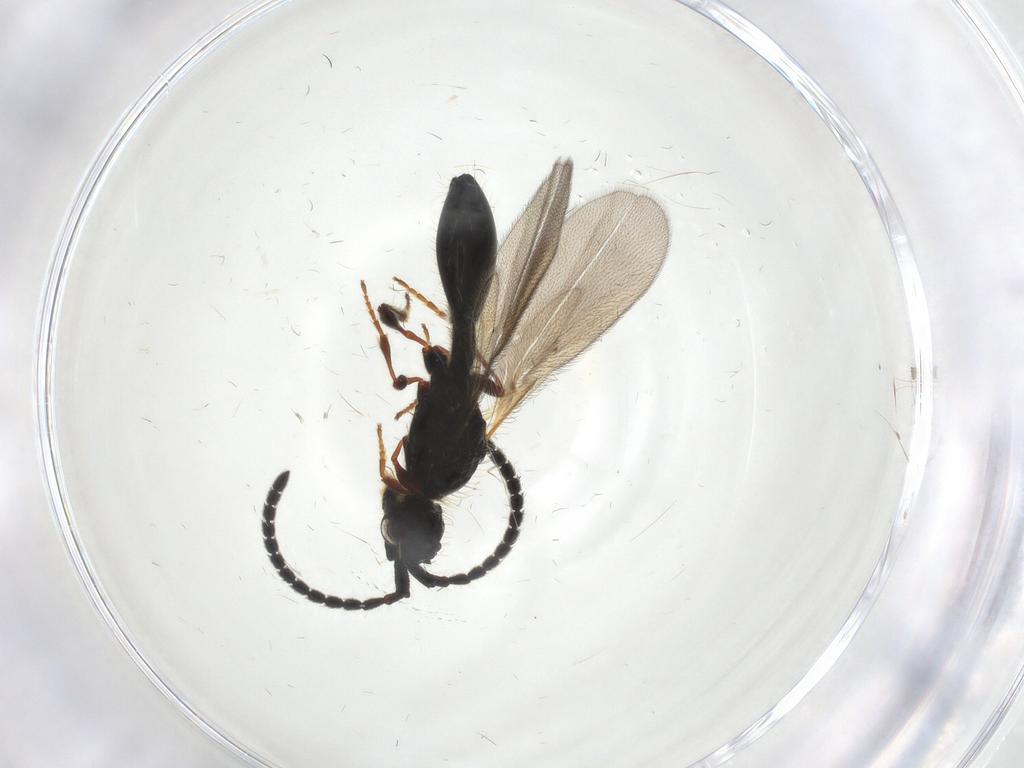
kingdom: Animalia
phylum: Arthropoda
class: Insecta
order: Hymenoptera
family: Diapriidae
